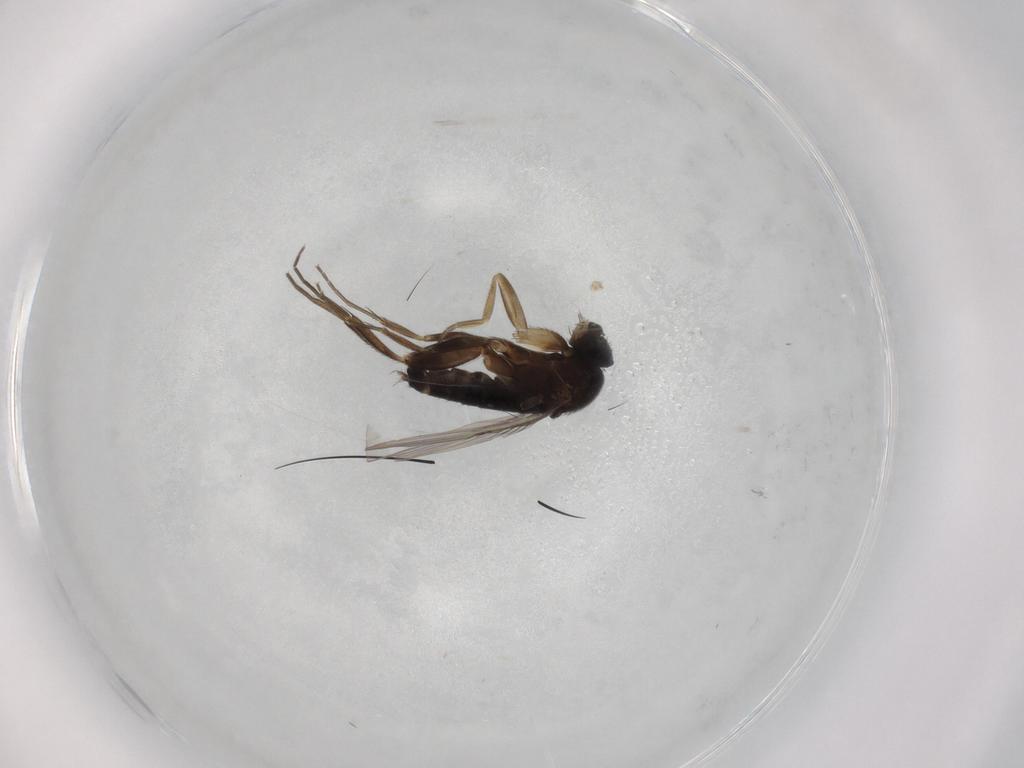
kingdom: Animalia
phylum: Arthropoda
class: Insecta
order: Diptera
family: Phoridae
